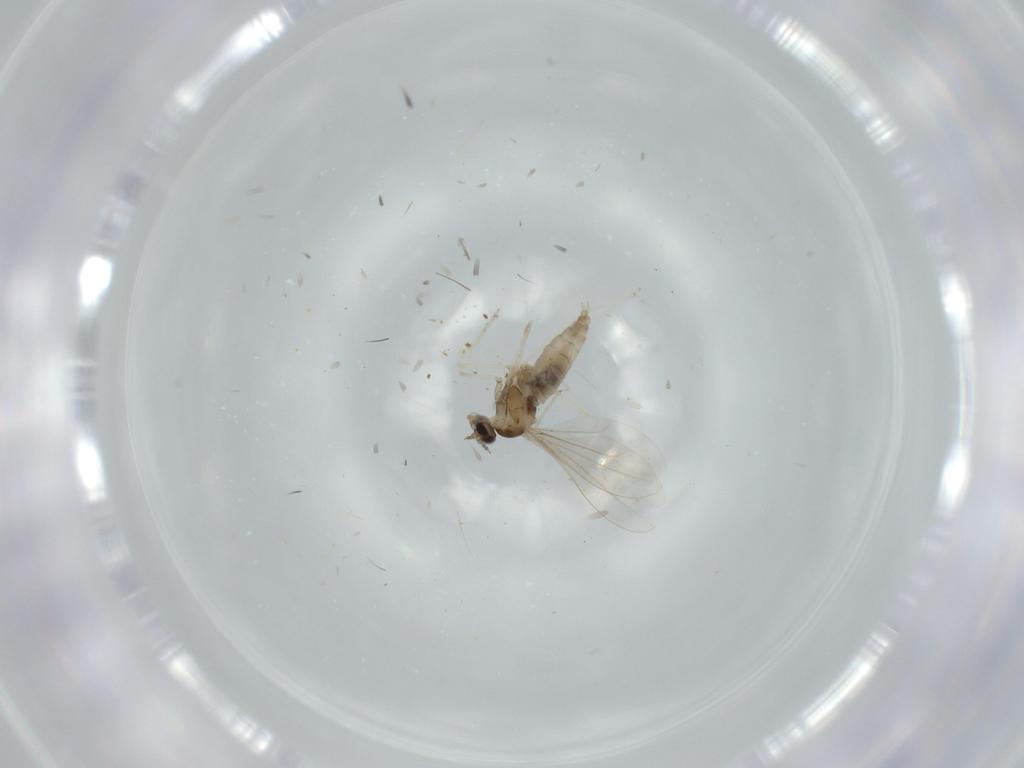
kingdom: Animalia
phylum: Arthropoda
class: Insecta
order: Diptera
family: Cecidomyiidae
